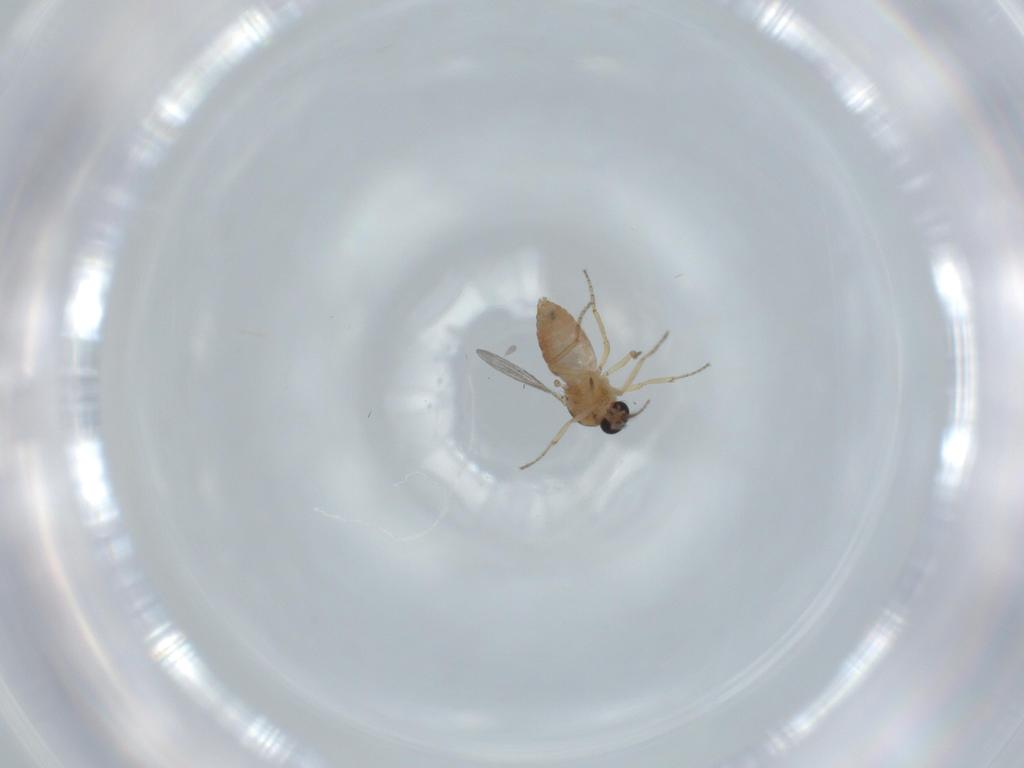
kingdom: Animalia
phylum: Arthropoda
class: Insecta
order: Diptera
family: Ceratopogonidae
